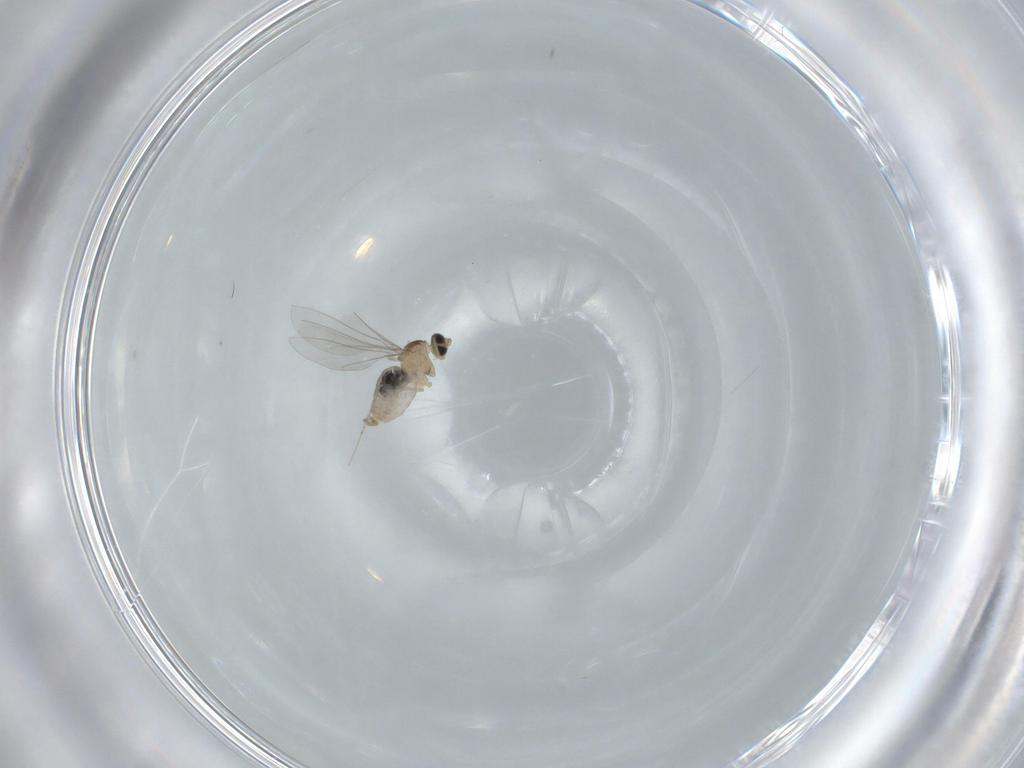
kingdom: Animalia
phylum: Arthropoda
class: Insecta
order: Diptera
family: Cecidomyiidae
